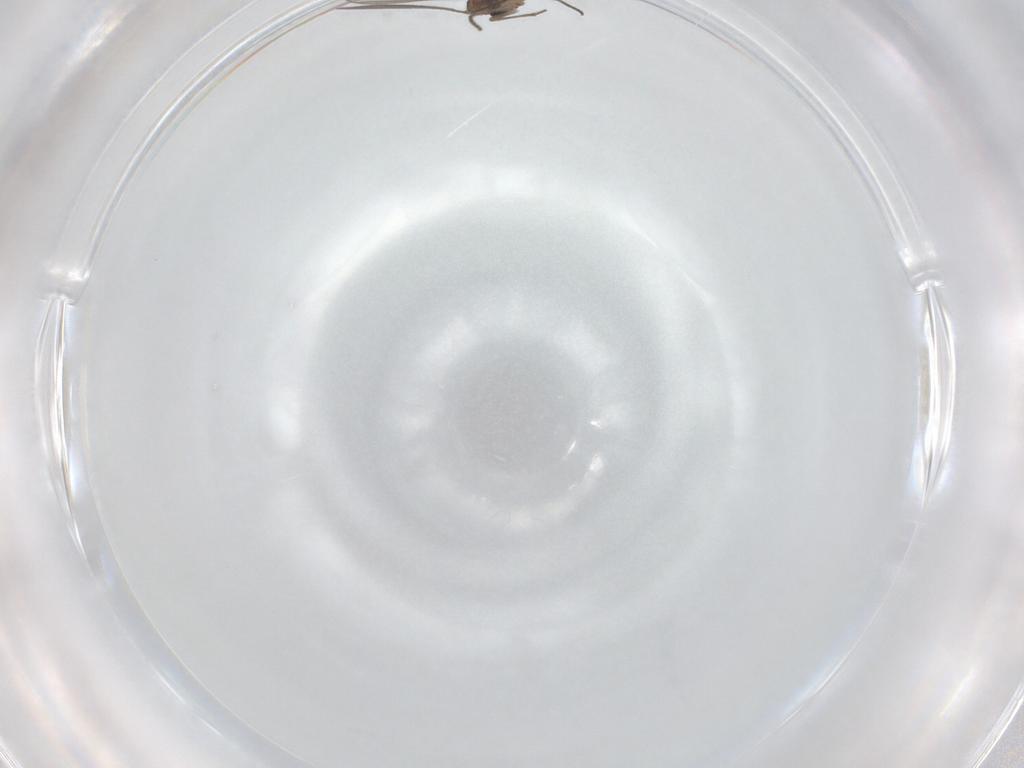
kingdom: Animalia
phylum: Arthropoda
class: Insecta
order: Diptera
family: Sciaridae
